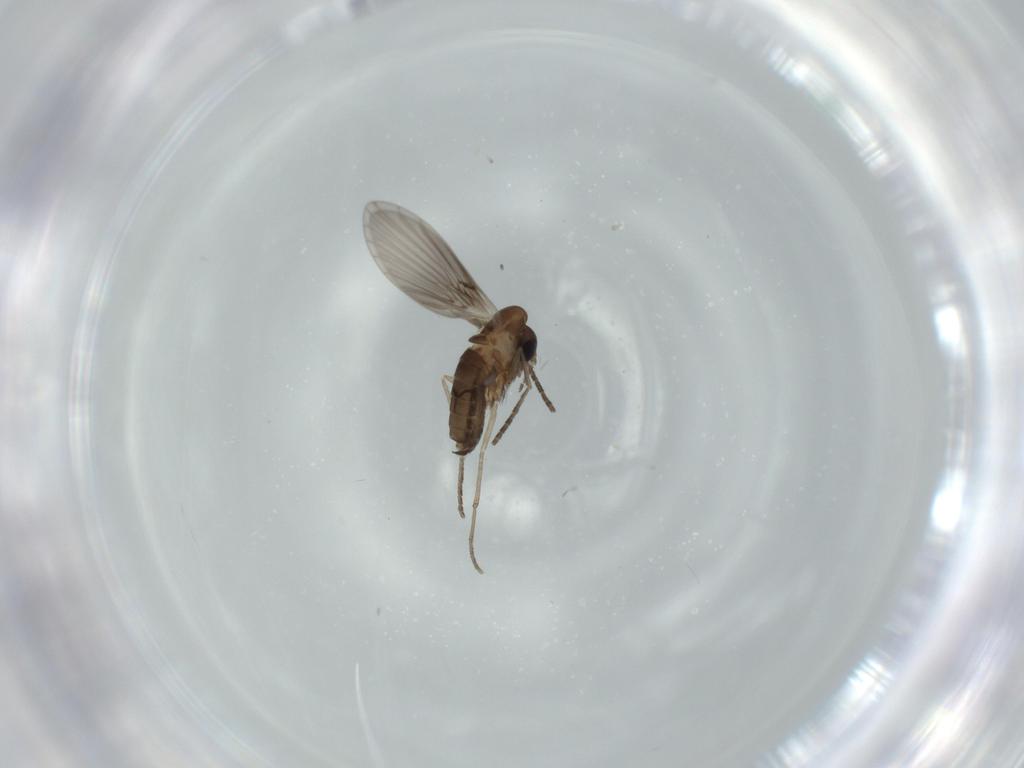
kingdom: Animalia
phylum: Arthropoda
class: Insecta
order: Diptera
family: Psychodidae
